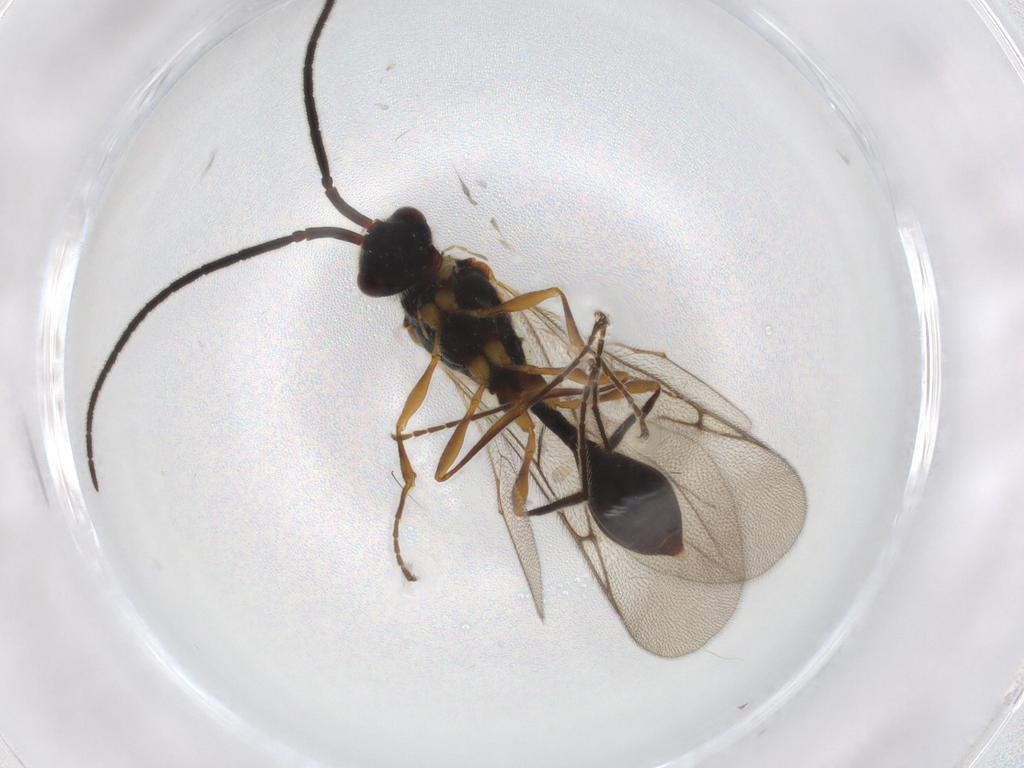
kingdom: Animalia
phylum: Arthropoda
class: Insecta
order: Hymenoptera
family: Diapriidae
